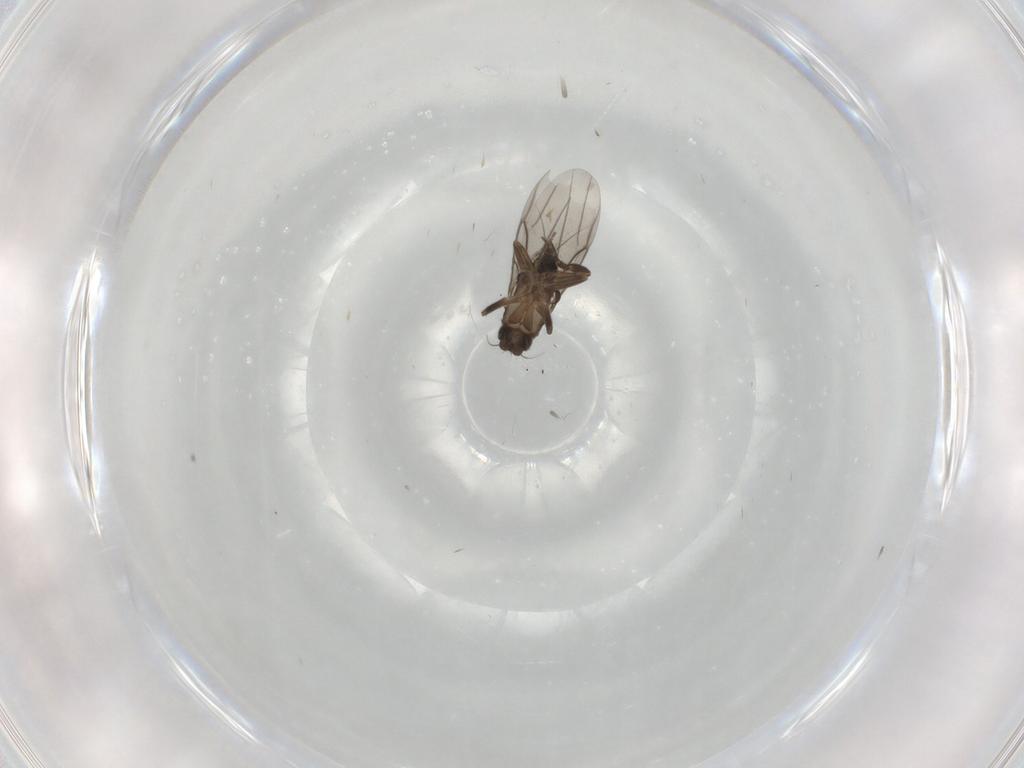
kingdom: Animalia
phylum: Arthropoda
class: Insecta
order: Diptera
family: Phoridae
